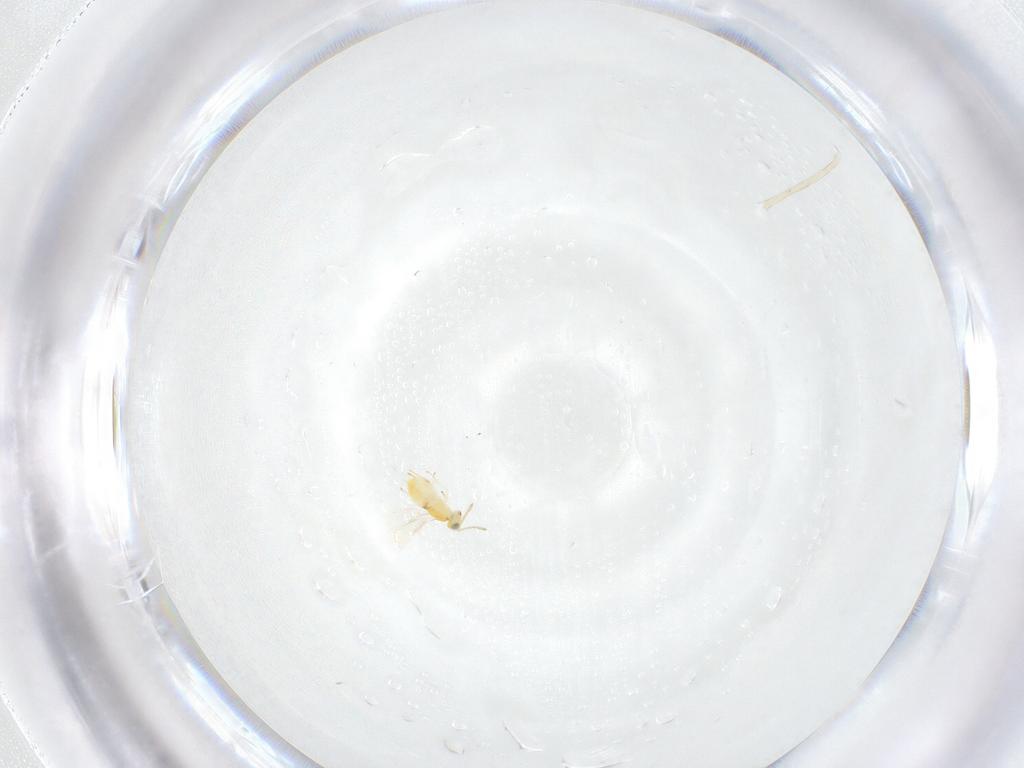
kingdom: Animalia
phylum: Arthropoda
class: Insecta
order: Hymenoptera
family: Aphelinidae
